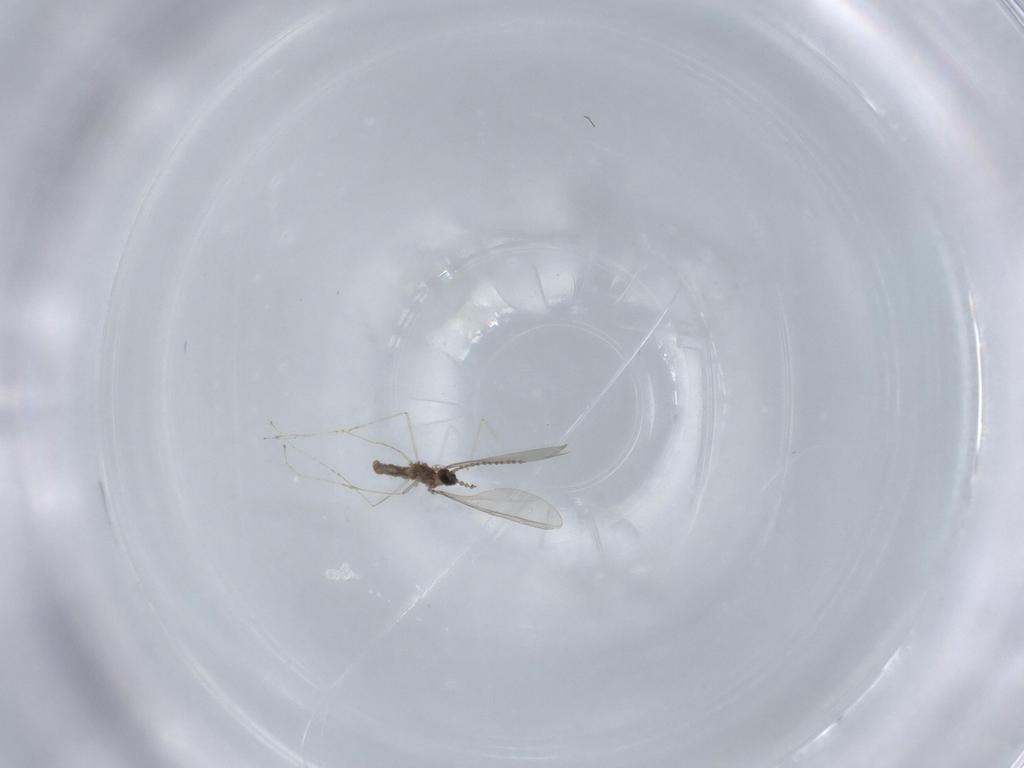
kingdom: Animalia
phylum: Arthropoda
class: Insecta
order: Diptera
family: Cecidomyiidae
